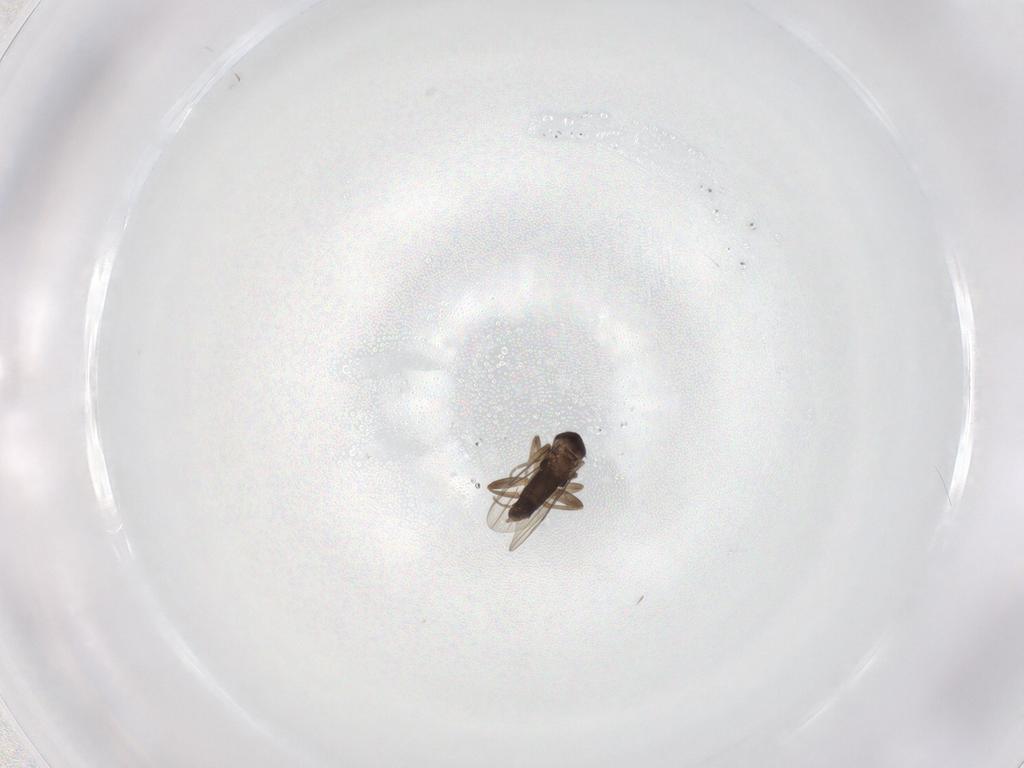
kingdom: Animalia
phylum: Arthropoda
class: Insecta
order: Diptera
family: Phoridae
